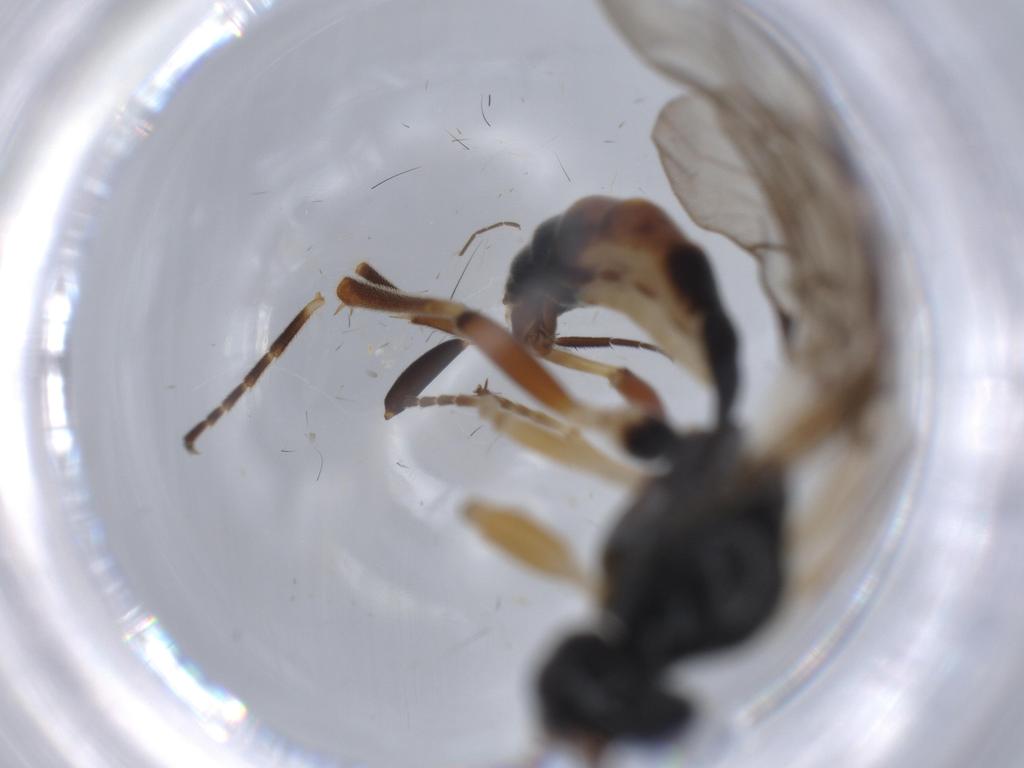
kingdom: Animalia
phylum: Arthropoda
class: Insecta
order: Hymenoptera
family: Ichneumonidae
